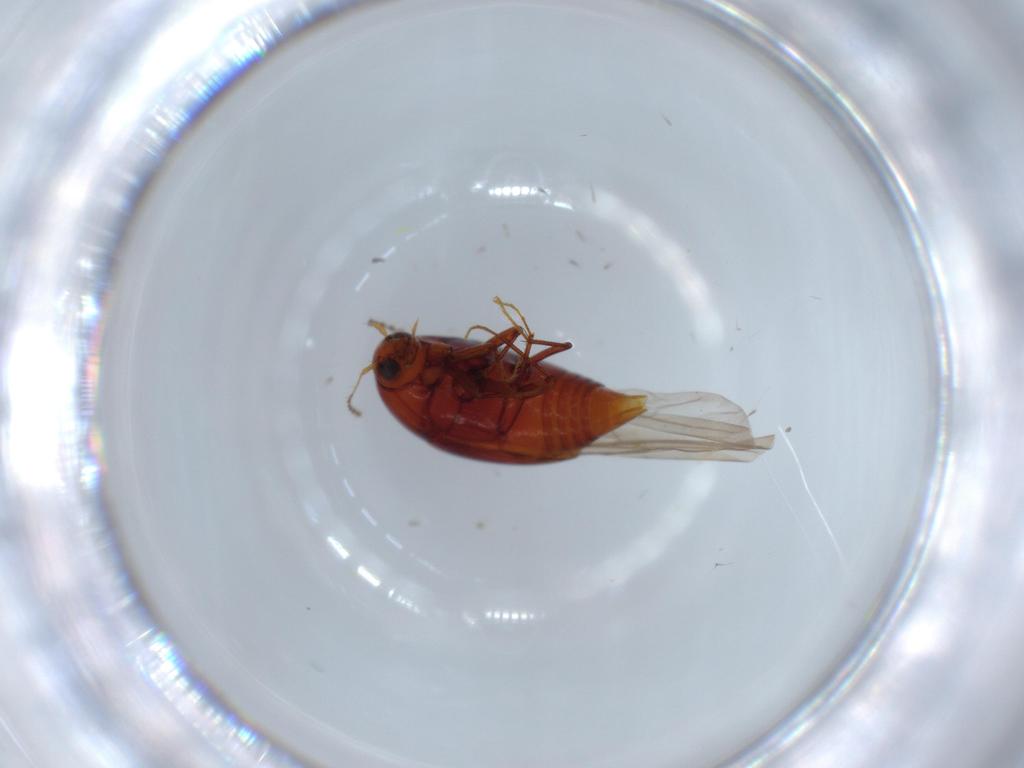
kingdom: Animalia
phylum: Arthropoda
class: Insecta
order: Coleoptera
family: Staphylinidae
